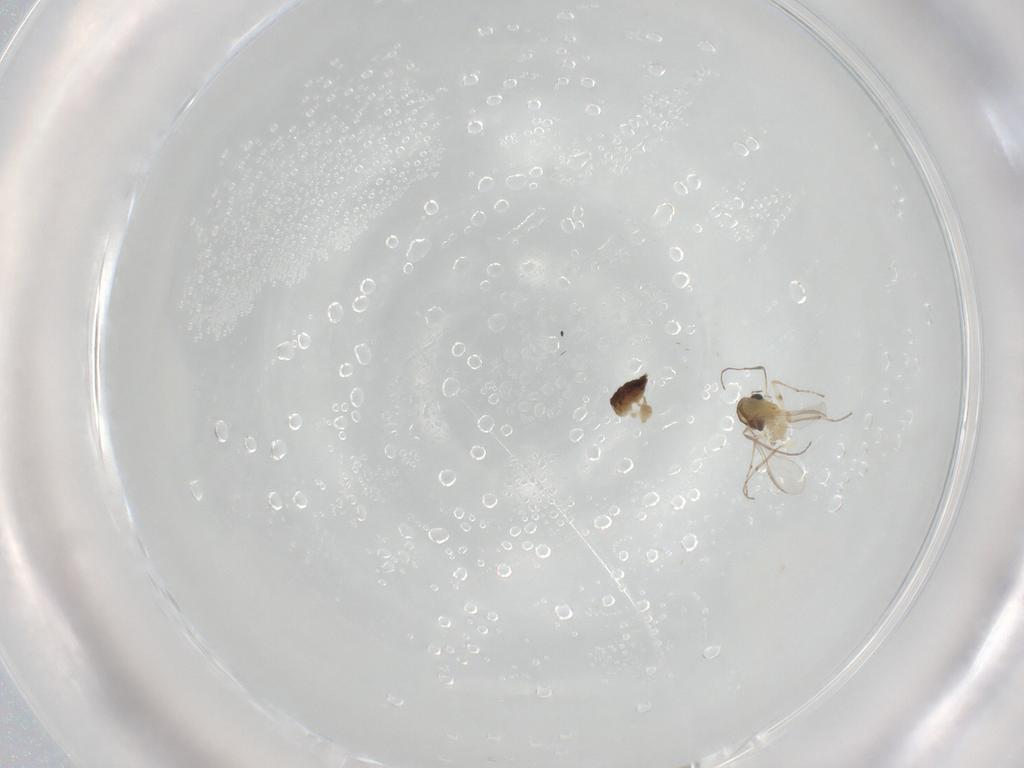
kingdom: Animalia
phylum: Arthropoda
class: Insecta
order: Diptera
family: Chironomidae
